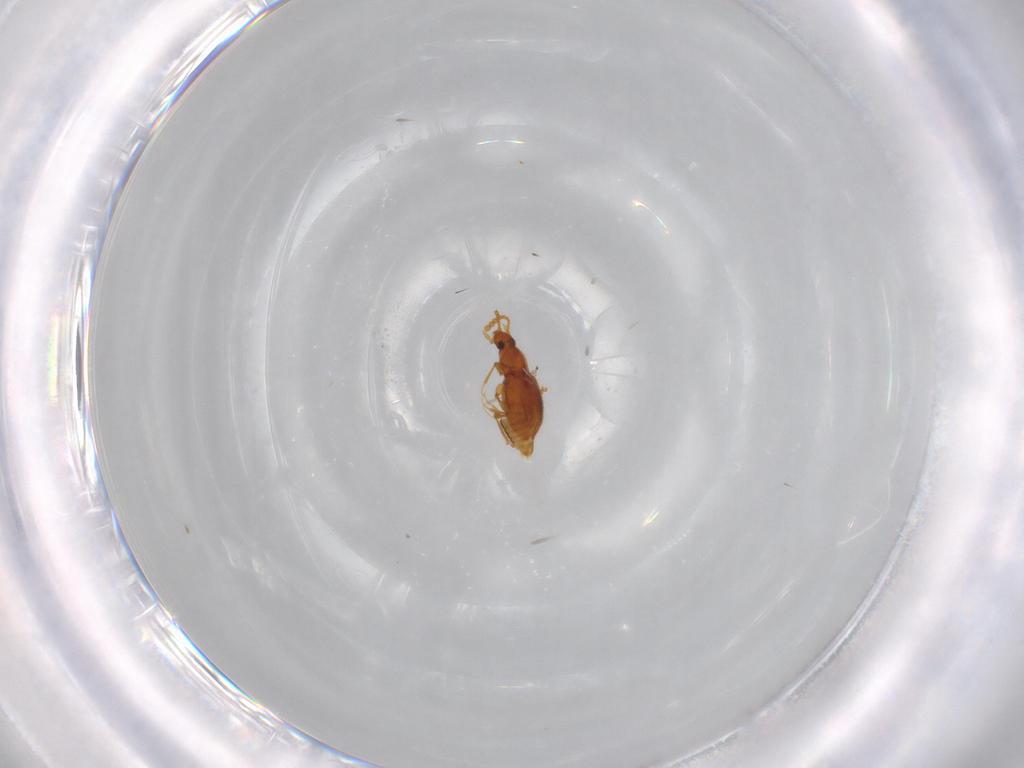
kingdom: Animalia
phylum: Arthropoda
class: Insecta
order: Coleoptera
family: Staphylinidae
